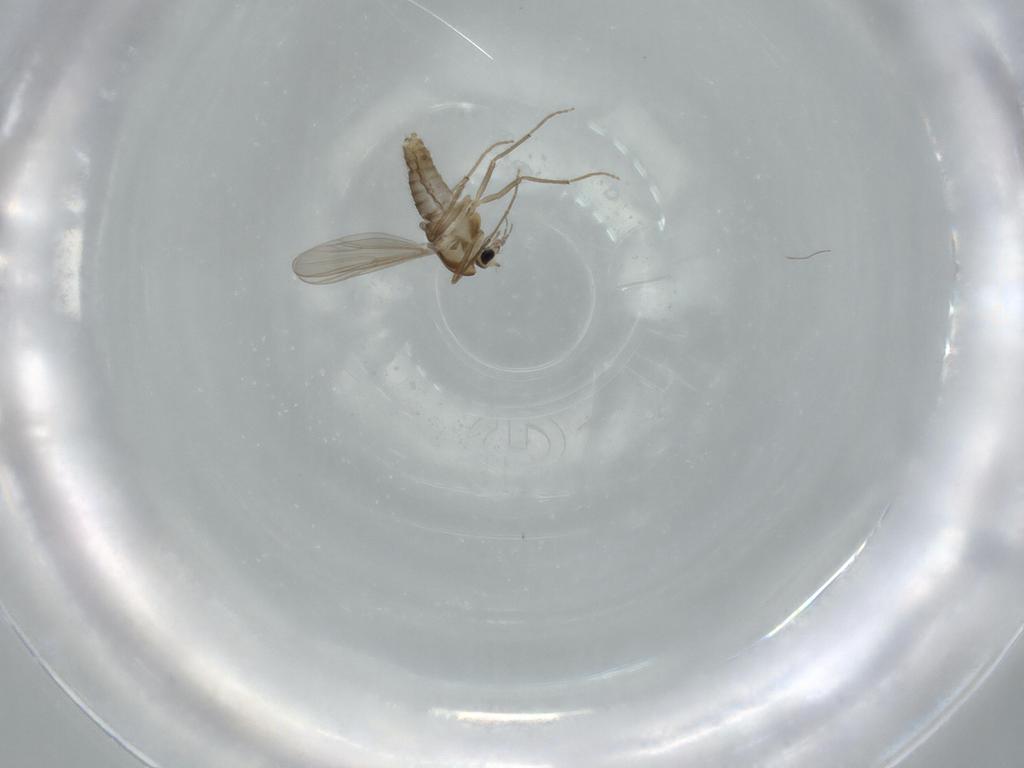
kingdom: Animalia
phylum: Arthropoda
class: Insecta
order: Diptera
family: Chironomidae
